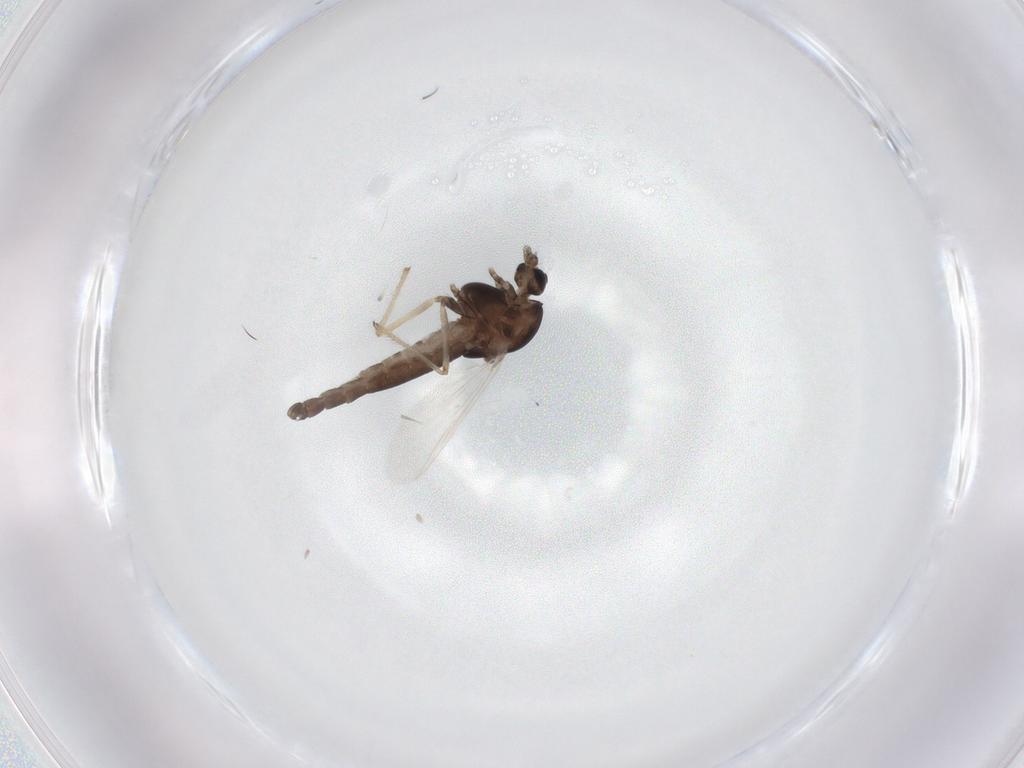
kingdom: Animalia
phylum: Arthropoda
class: Insecta
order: Diptera
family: Chironomidae
